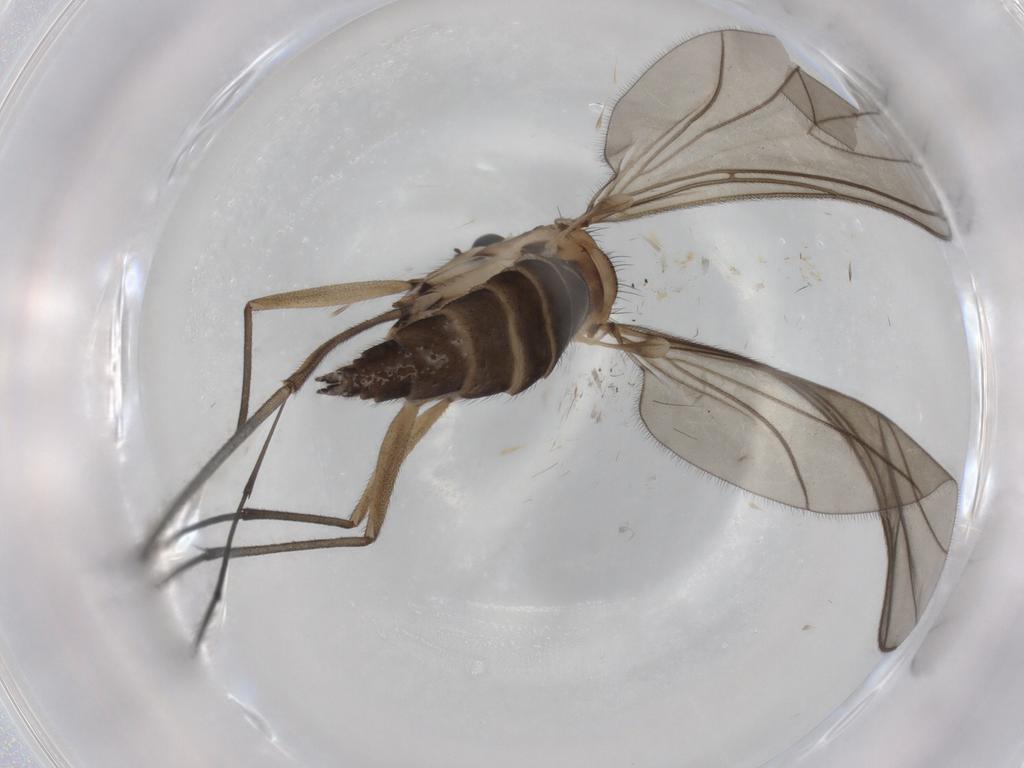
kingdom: Animalia
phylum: Arthropoda
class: Insecta
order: Diptera
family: Sciaridae
